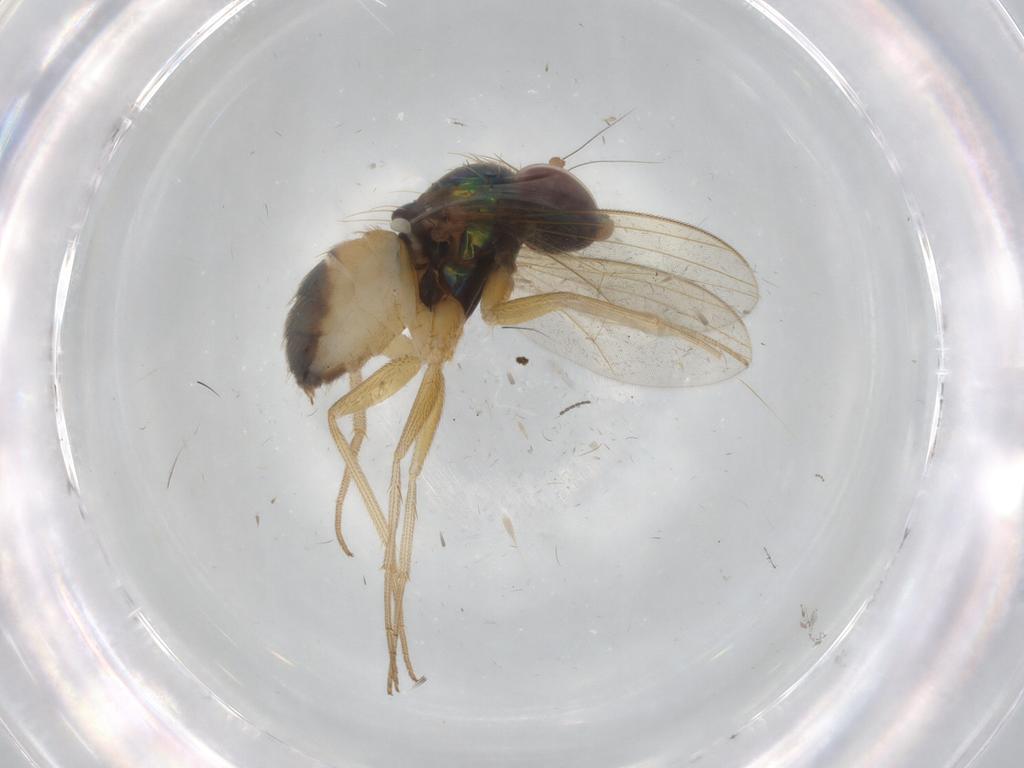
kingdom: Animalia
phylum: Arthropoda
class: Insecta
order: Diptera
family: Dolichopodidae
